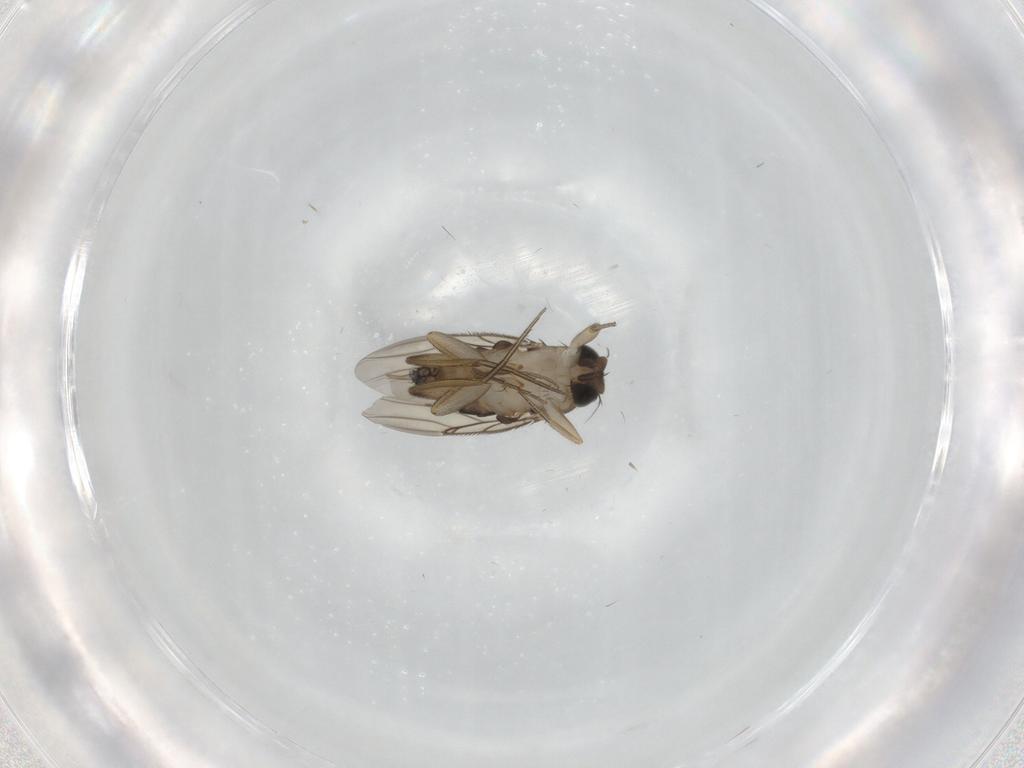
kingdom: Animalia
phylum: Arthropoda
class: Insecta
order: Diptera
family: Micropezidae
